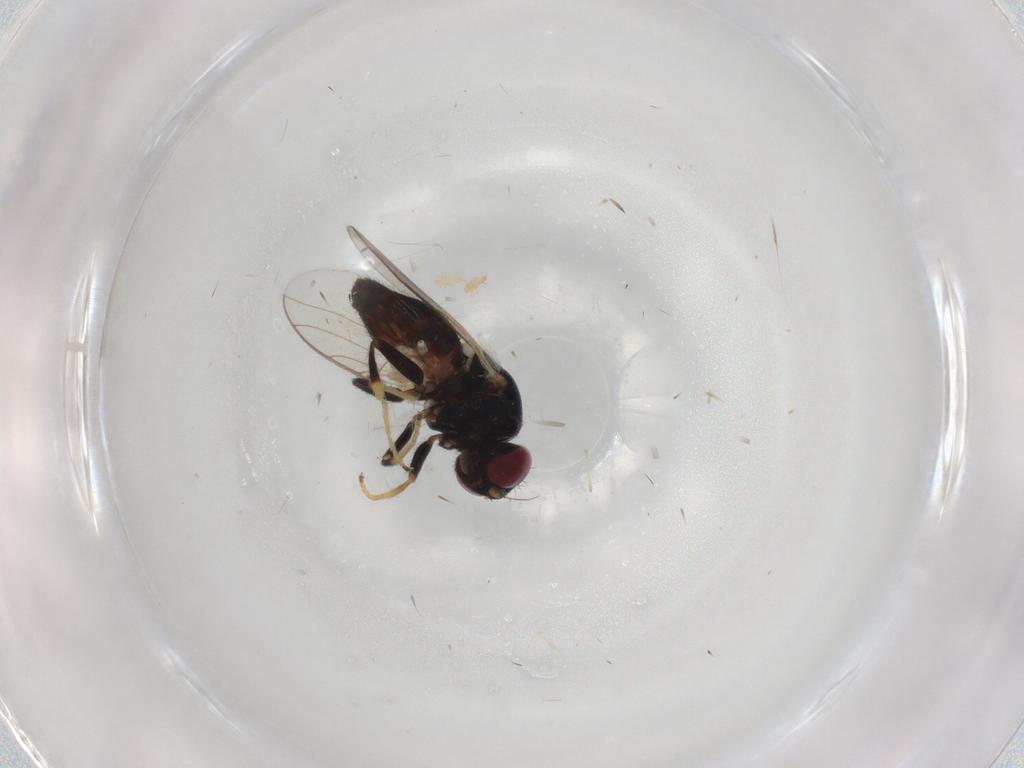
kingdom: Animalia
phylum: Arthropoda
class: Insecta
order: Diptera
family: Chloropidae
